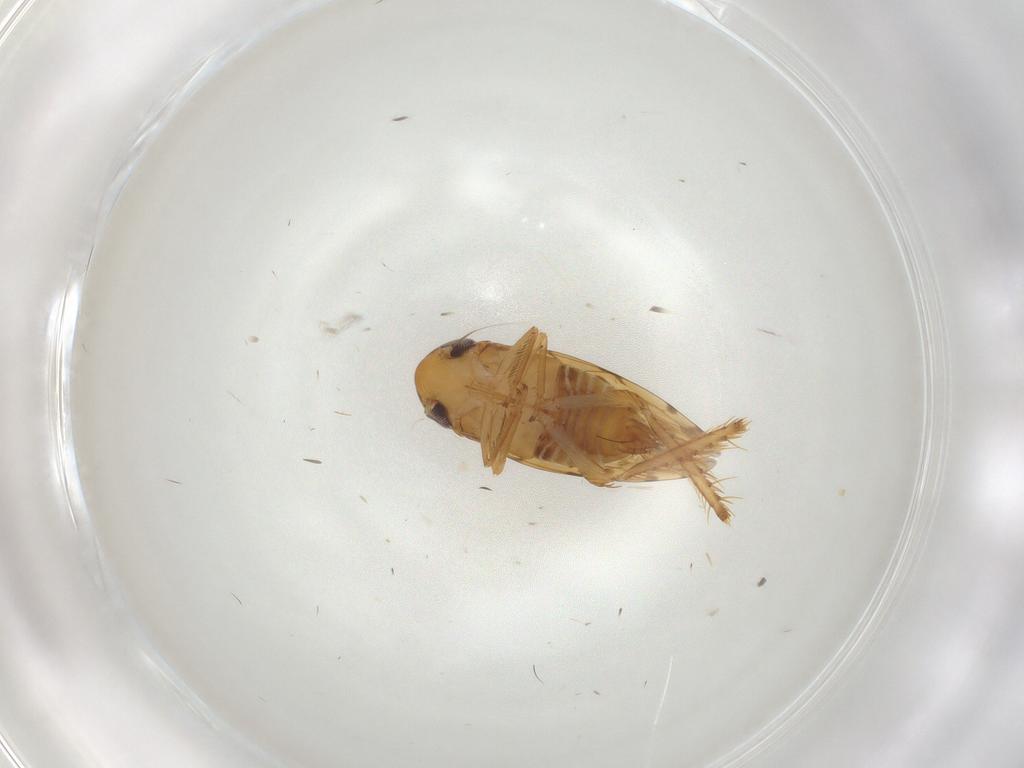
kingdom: Animalia
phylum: Arthropoda
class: Insecta
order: Hemiptera
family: Cicadellidae
